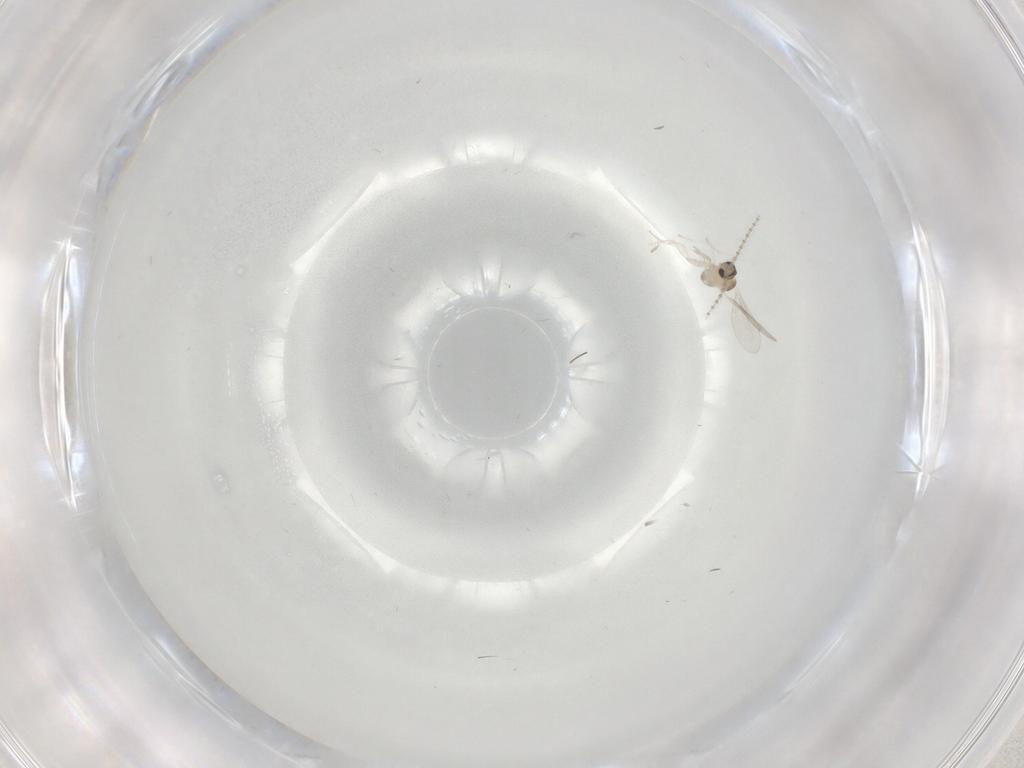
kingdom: Animalia
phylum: Arthropoda
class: Insecta
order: Diptera
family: Cecidomyiidae
